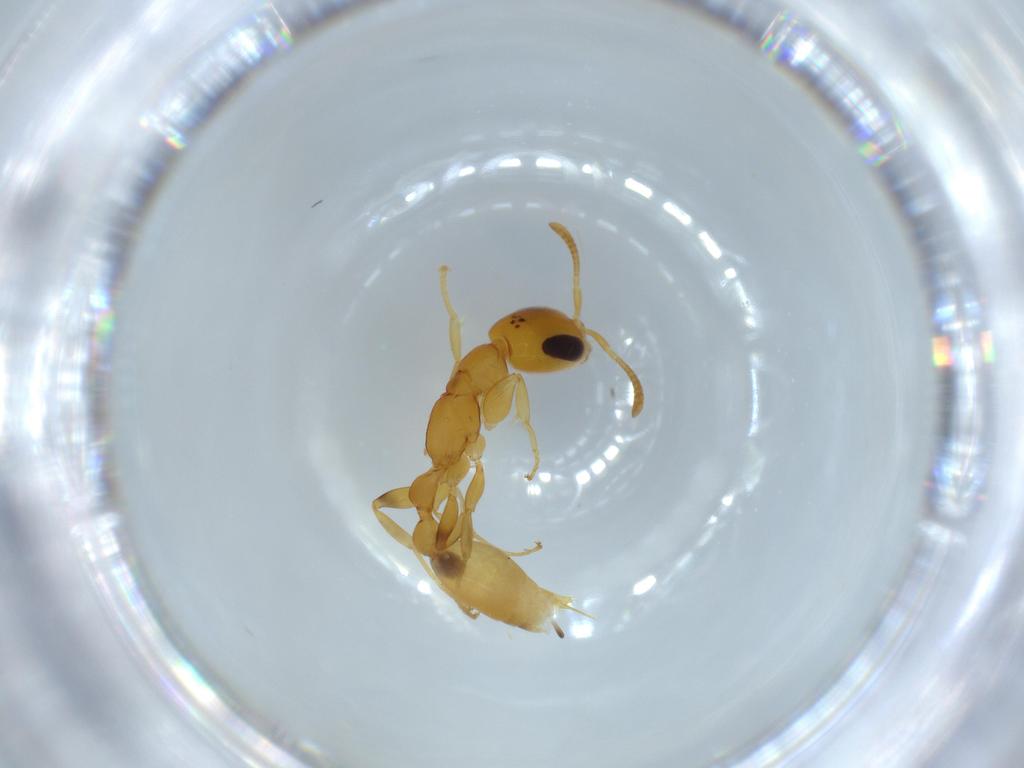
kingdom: Animalia
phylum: Arthropoda
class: Insecta
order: Hymenoptera
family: Formicidae
